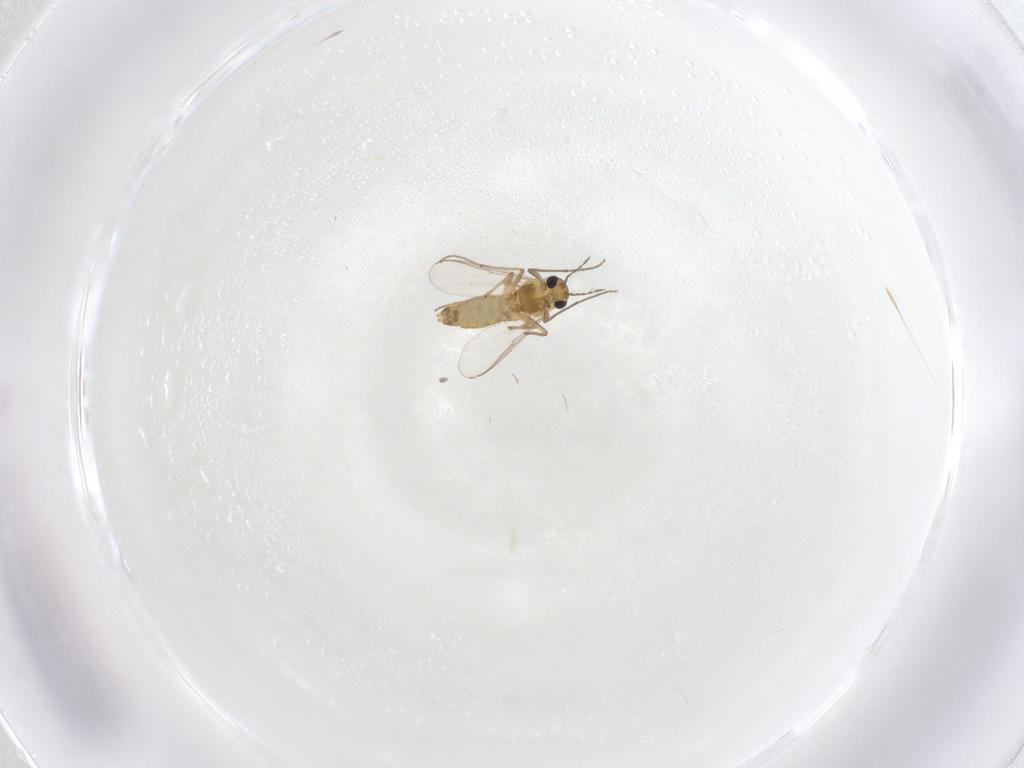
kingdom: Animalia
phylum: Arthropoda
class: Insecta
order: Diptera
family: Chironomidae
